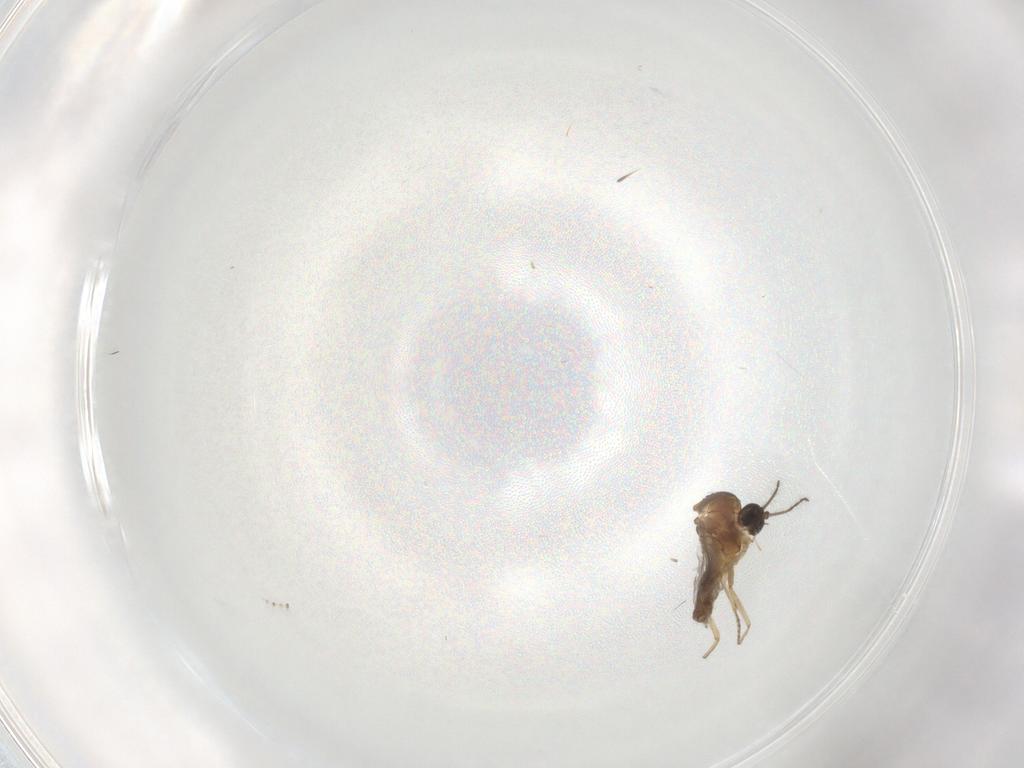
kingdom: Animalia
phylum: Arthropoda
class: Insecta
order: Diptera
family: Ceratopogonidae
